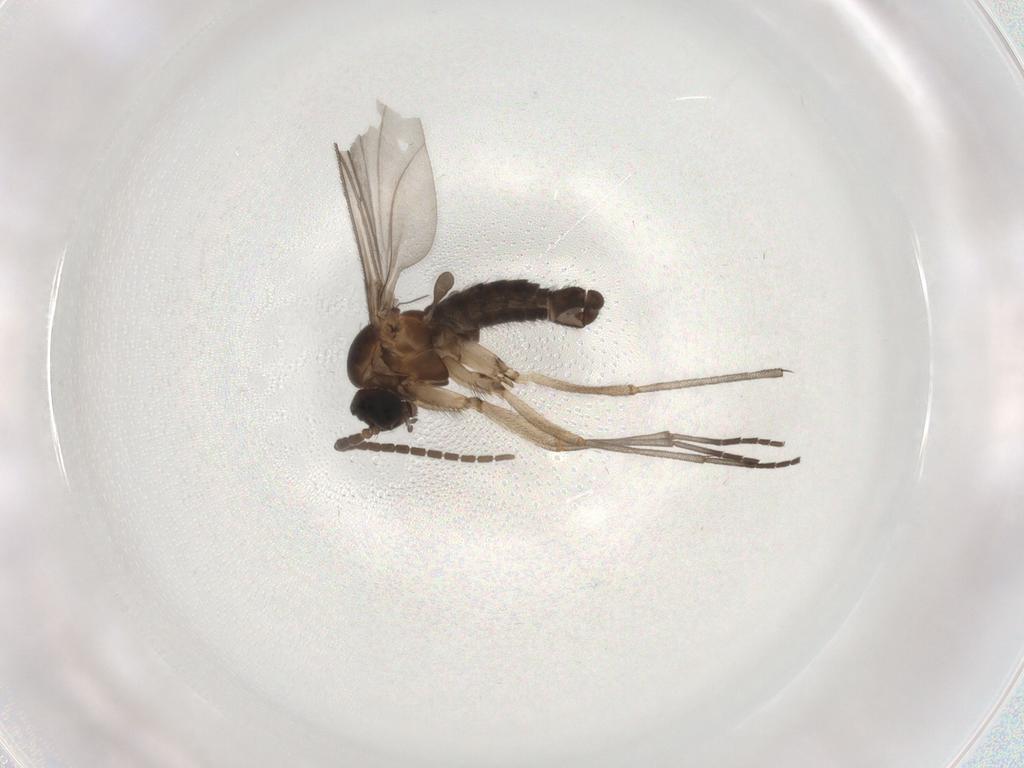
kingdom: Animalia
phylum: Arthropoda
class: Insecta
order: Diptera
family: Sciaridae
